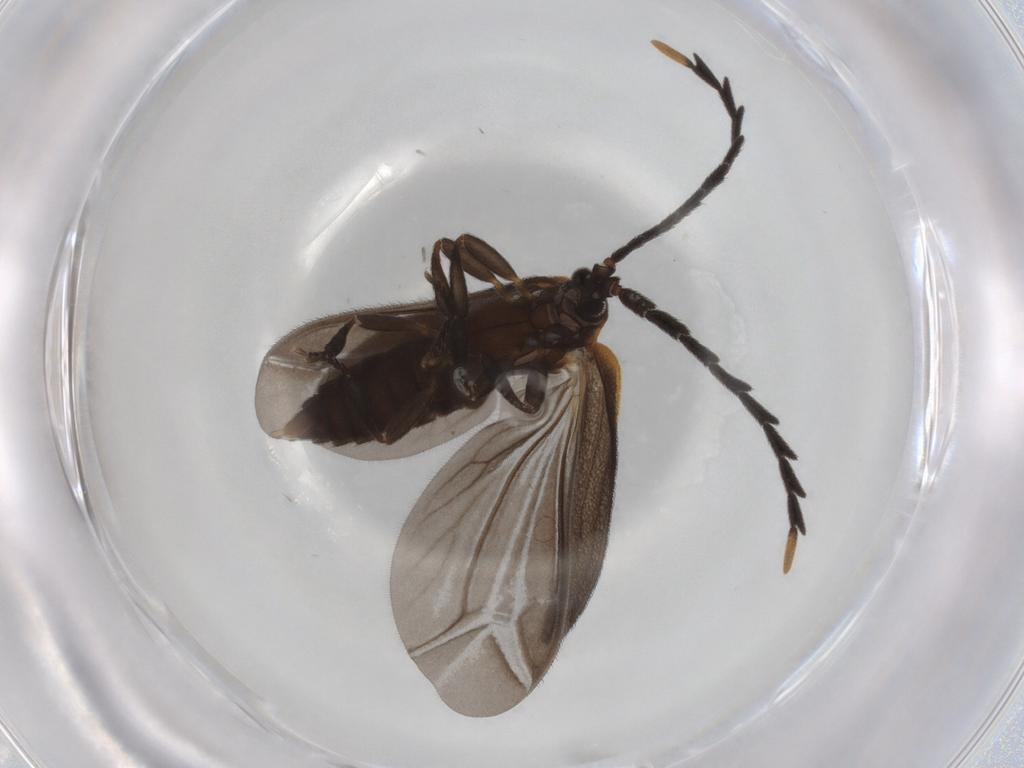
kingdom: Animalia
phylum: Arthropoda
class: Insecta
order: Coleoptera
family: Lycidae
